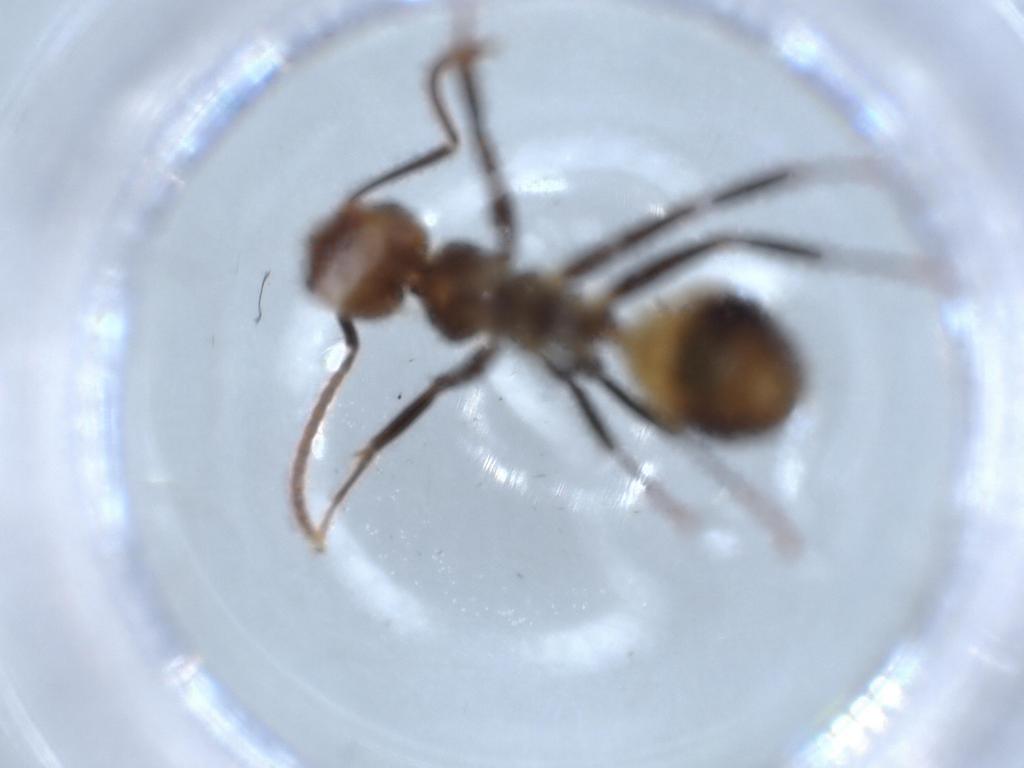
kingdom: Animalia
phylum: Arthropoda
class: Insecta
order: Hymenoptera
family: Formicidae
